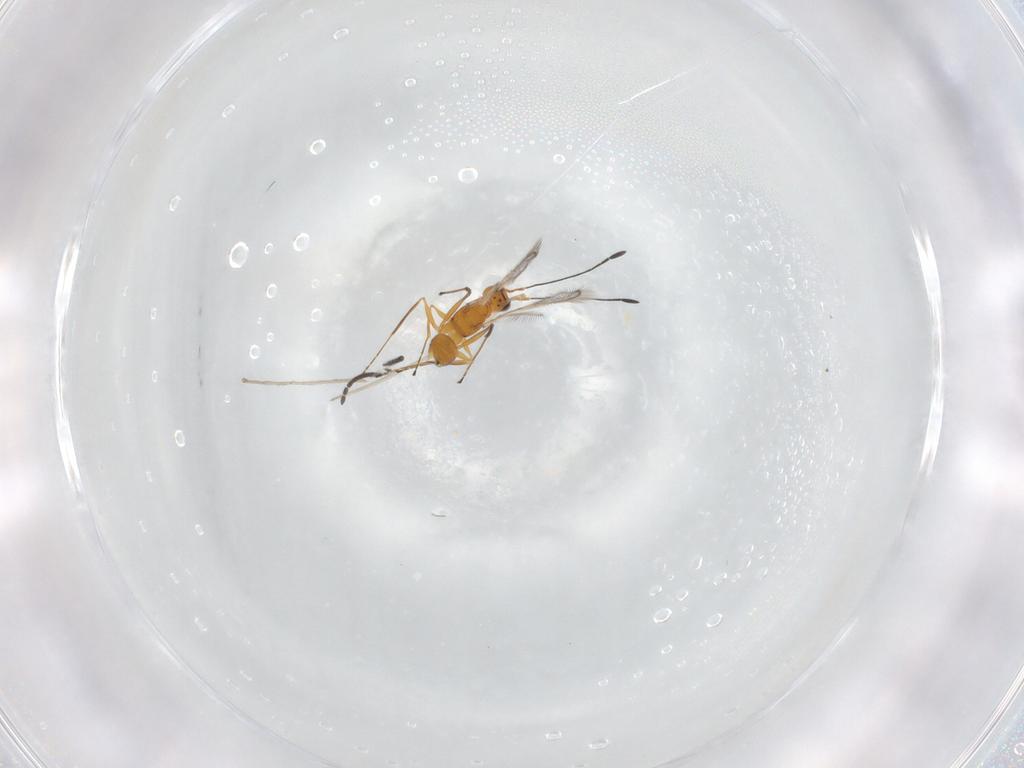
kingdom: Animalia
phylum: Arthropoda
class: Insecta
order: Hymenoptera
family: Mymaridae
